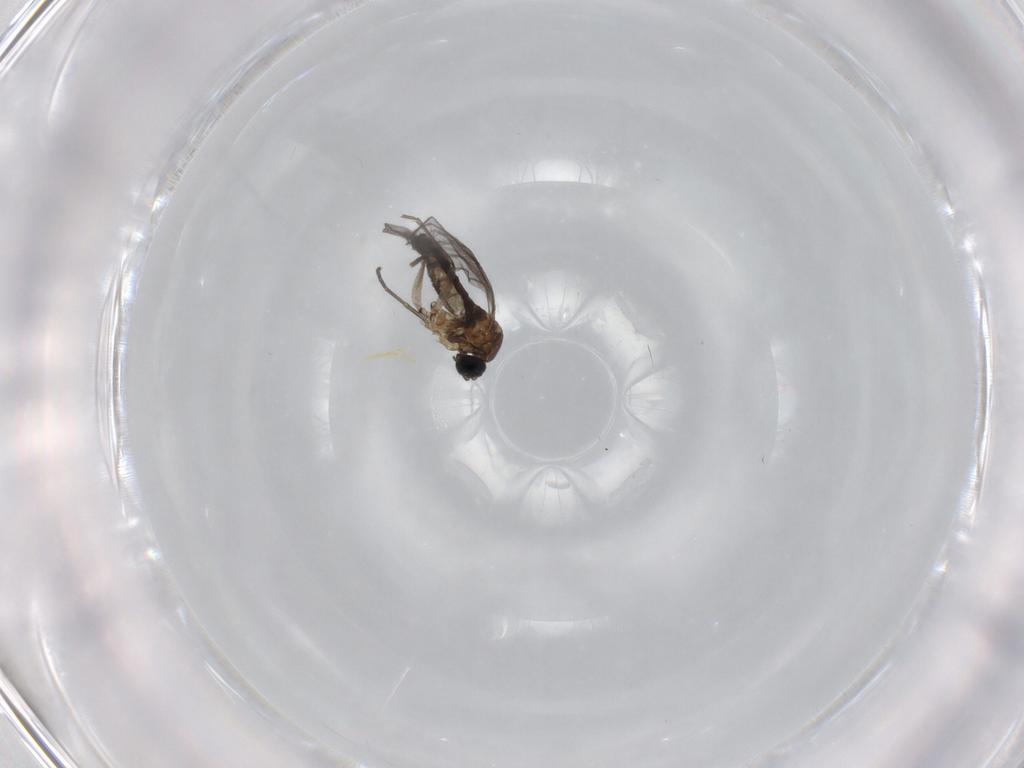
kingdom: Animalia
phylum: Arthropoda
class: Insecta
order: Diptera
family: Sciaridae
